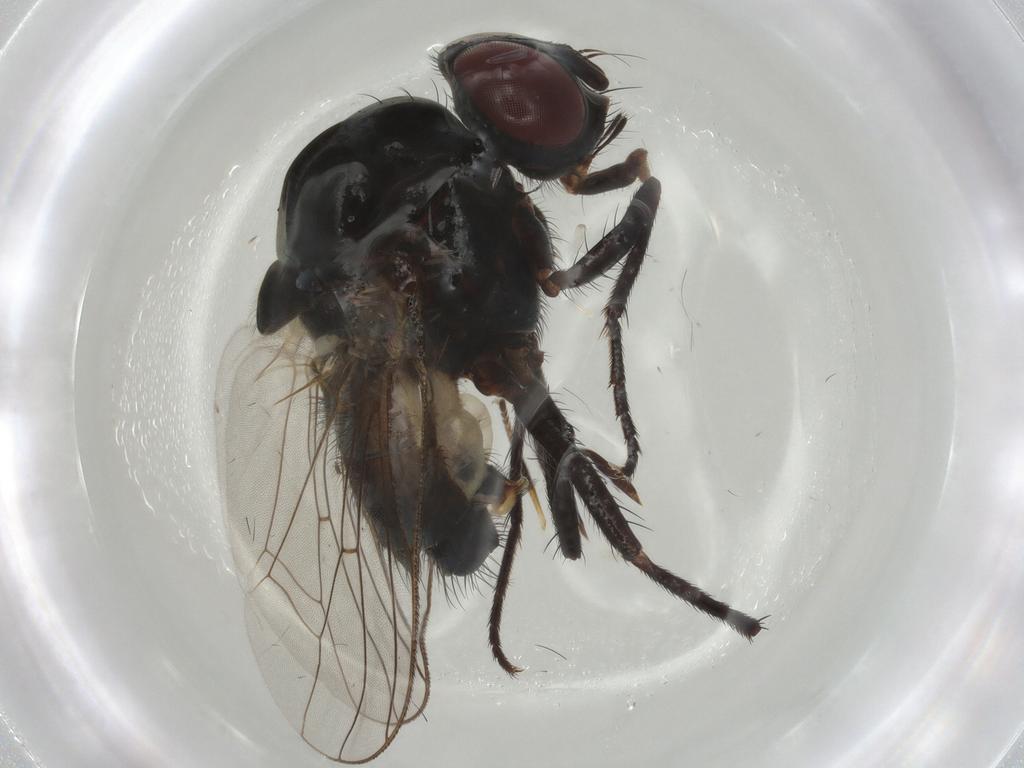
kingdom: Animalia
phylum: Arthropoda
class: Insecta
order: Diptera
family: Anthomyiidae
